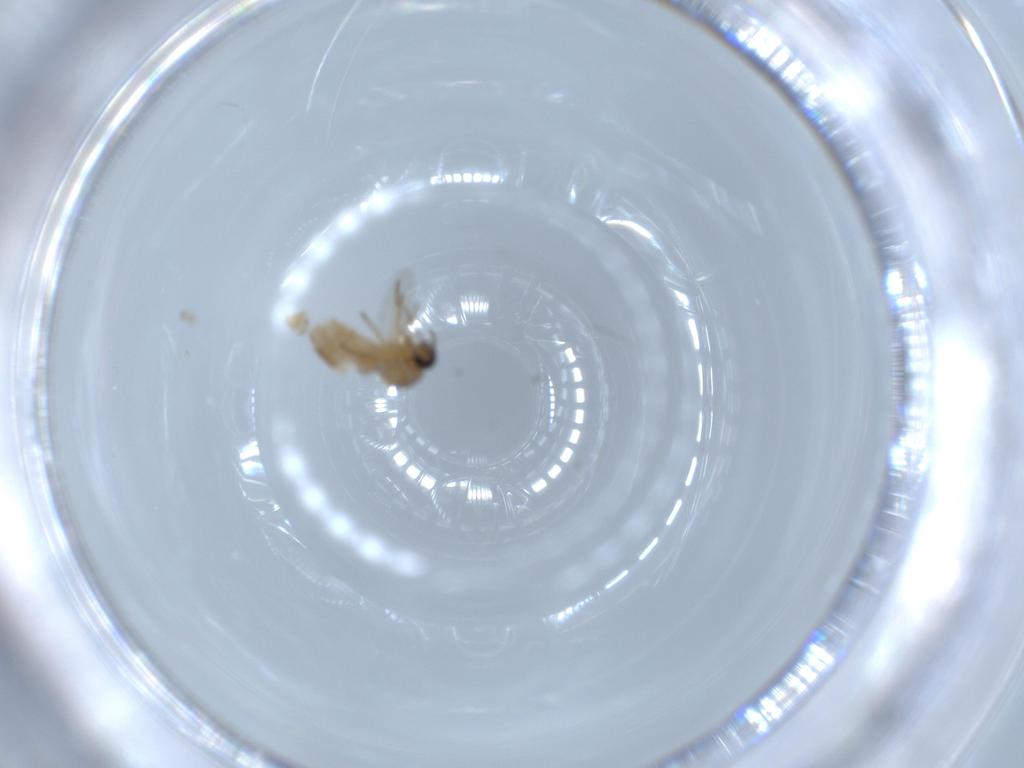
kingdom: Animalia
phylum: Arthropoda
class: Insecta
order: Diptera
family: Ceratopogonidae
